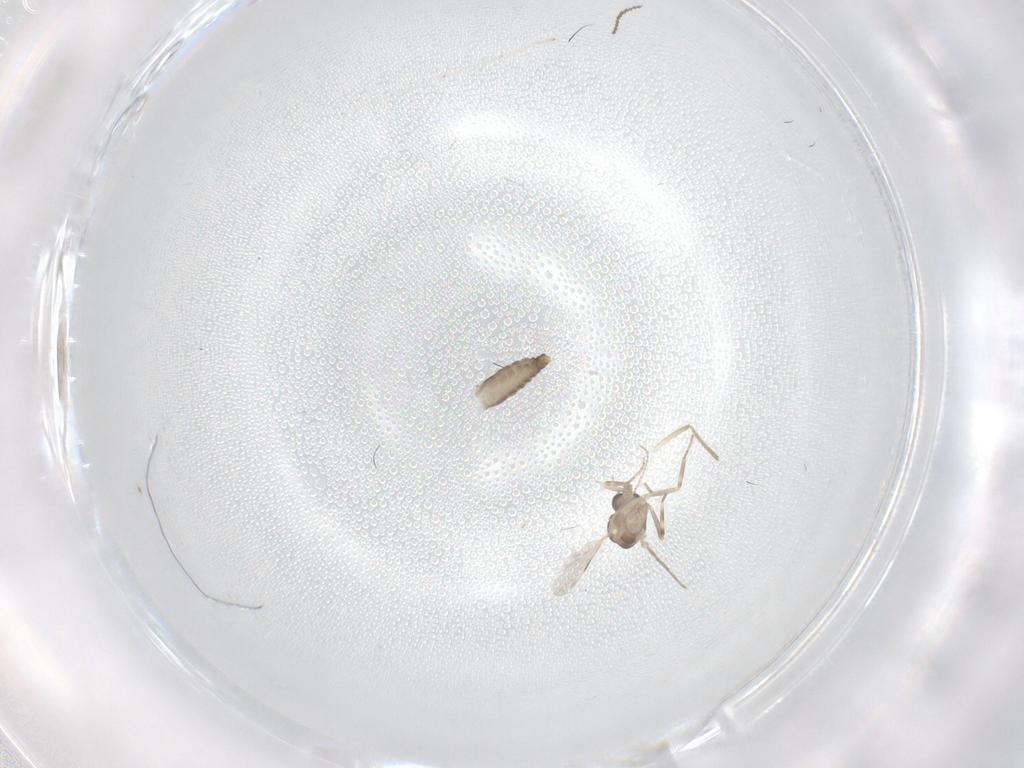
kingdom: Animalia
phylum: Arthropoda
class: Insecta
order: Diptera
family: Ceratopogonidae
